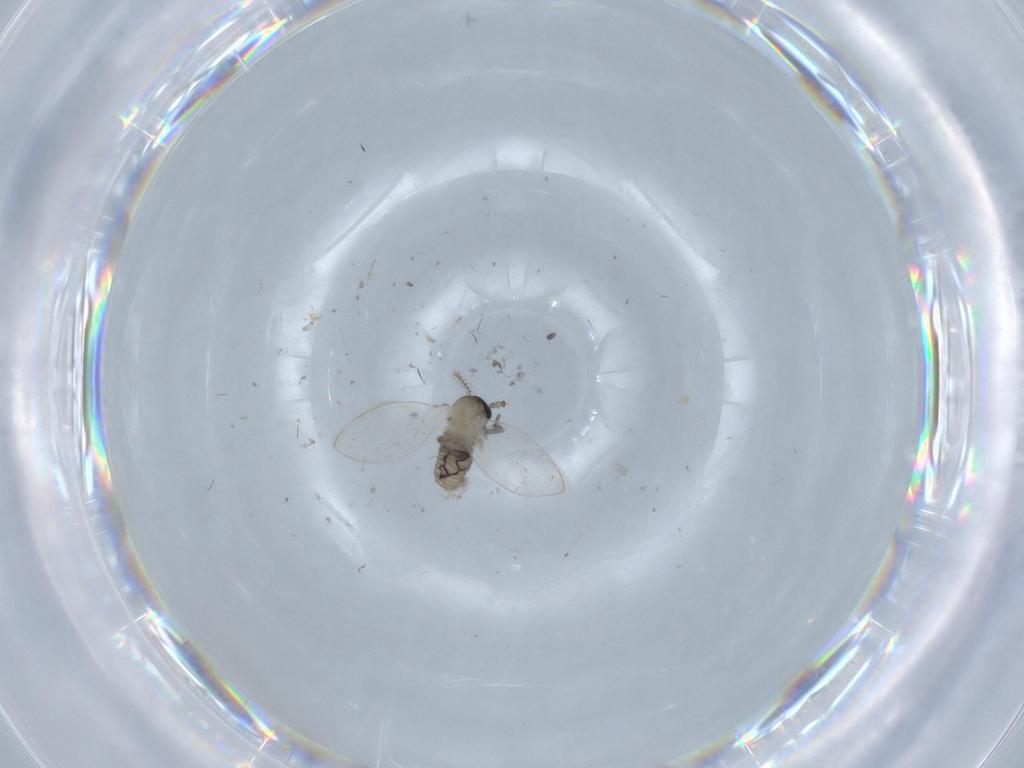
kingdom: Animalia
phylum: Arthropoda
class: Insecta
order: Diptera
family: Psychodidae
